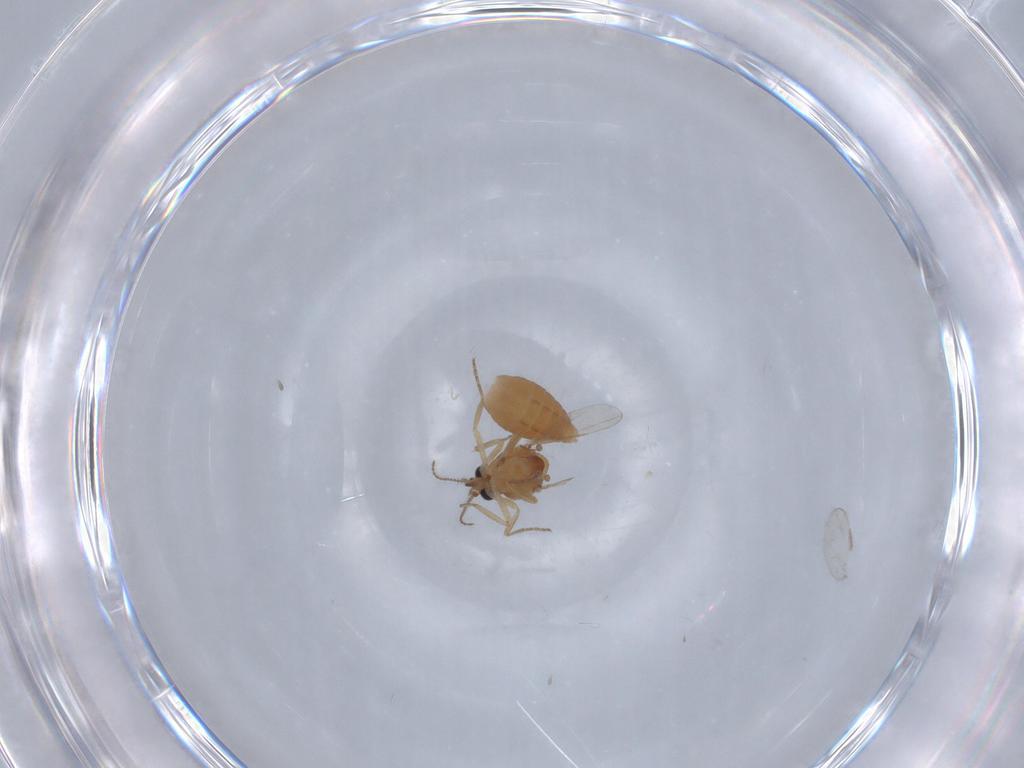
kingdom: Animalia
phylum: Arthropoda
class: Insecta
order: Diptera
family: Ceratopogonidae
